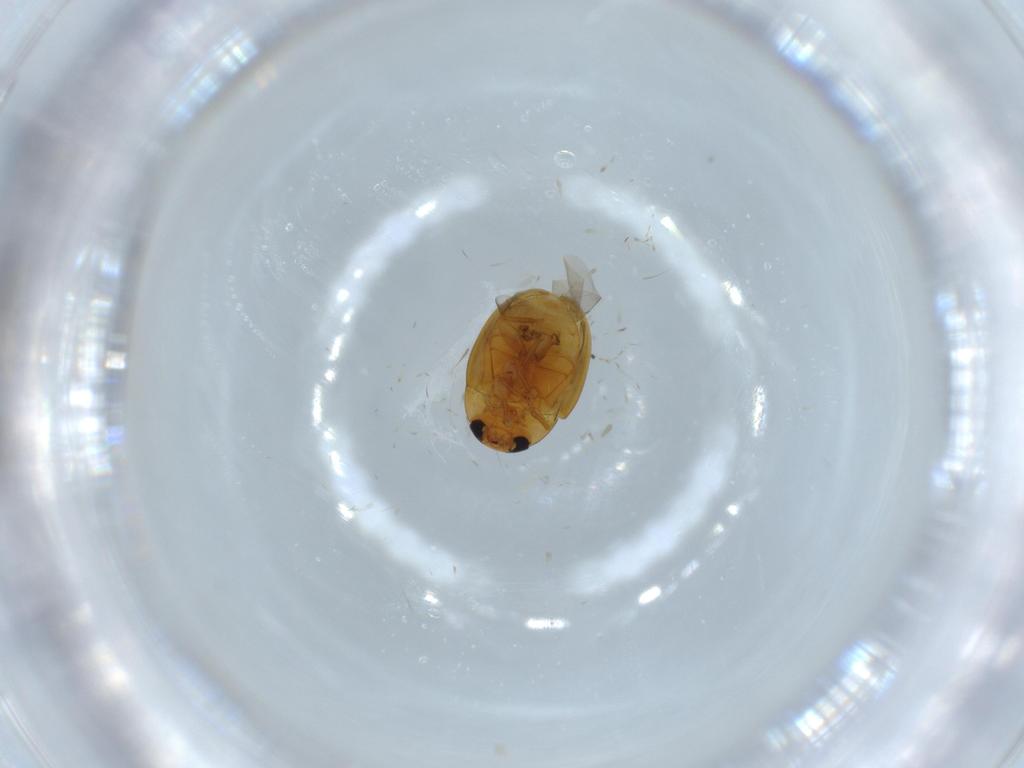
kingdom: Animalia
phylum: Arthropoda
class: Insecta
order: Coleoptera
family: Phalacridae
